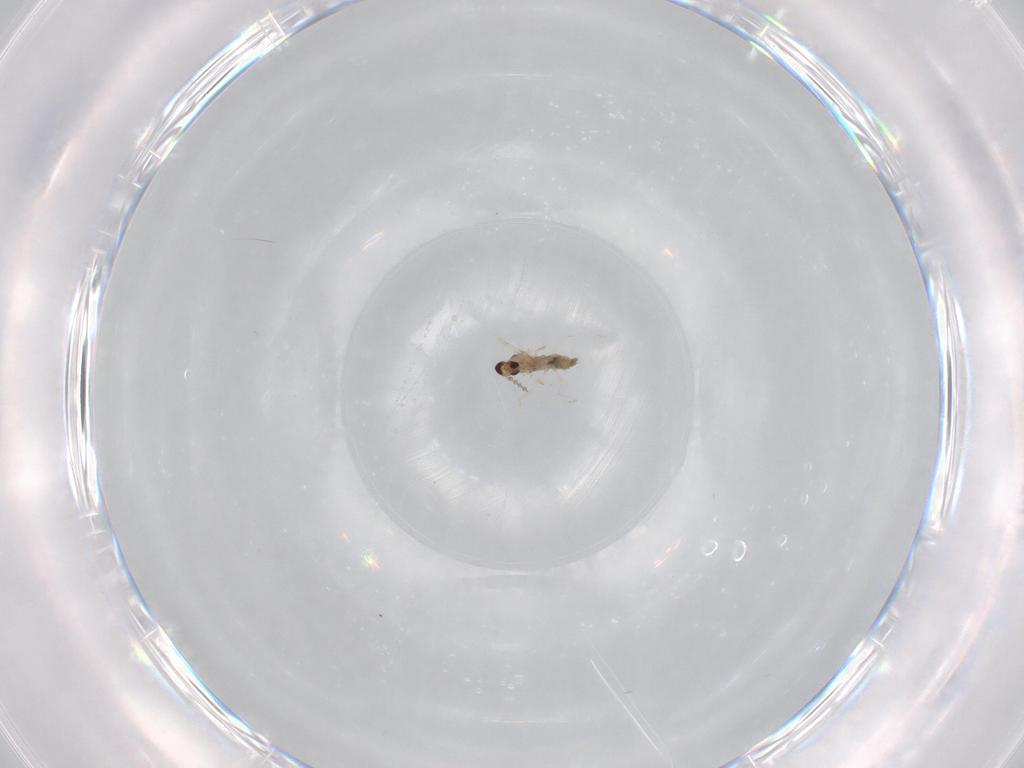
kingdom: Animalia
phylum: Arthropoda
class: Insecta
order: Diptera
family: Cecidomyiidae
